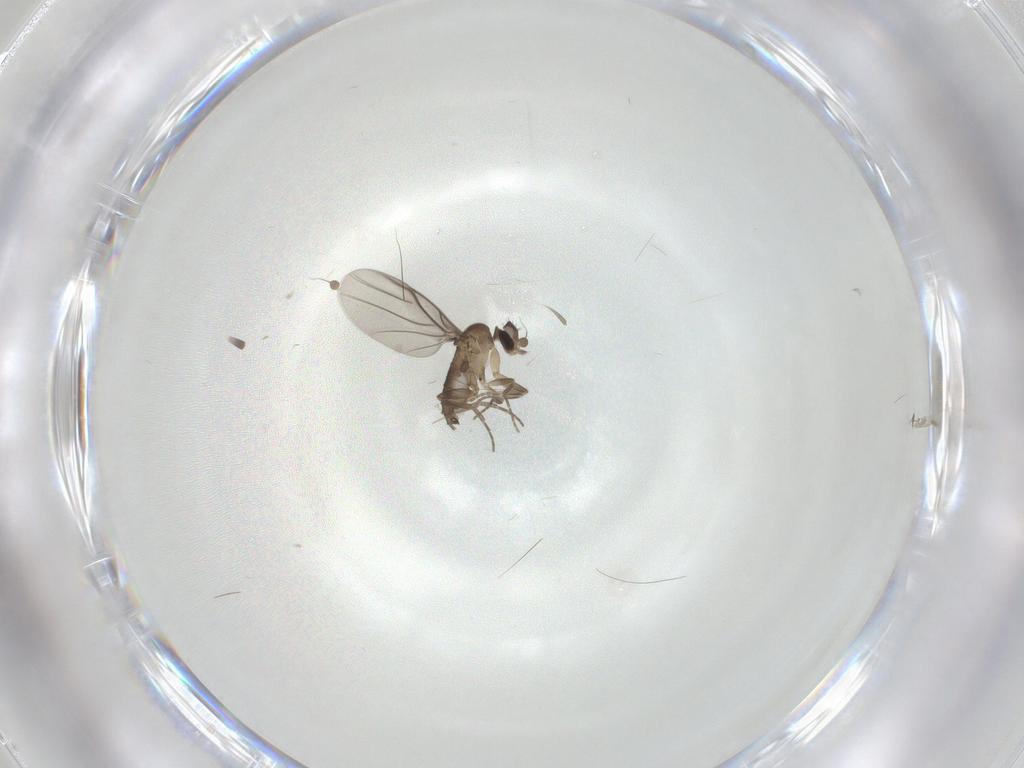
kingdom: Animalia
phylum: Arthropoda
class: Insecta
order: Diptera
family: Phoridae
